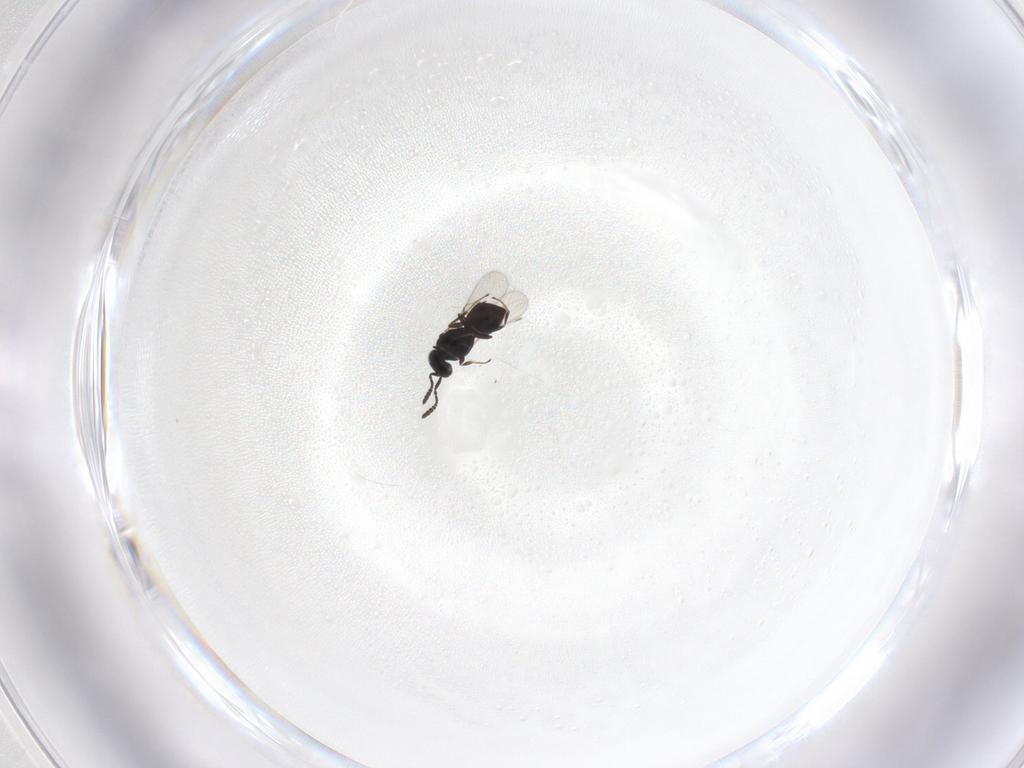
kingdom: Animalia
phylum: Arthropoda
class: Insecta
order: Hymenoptera
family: Scelionidae
